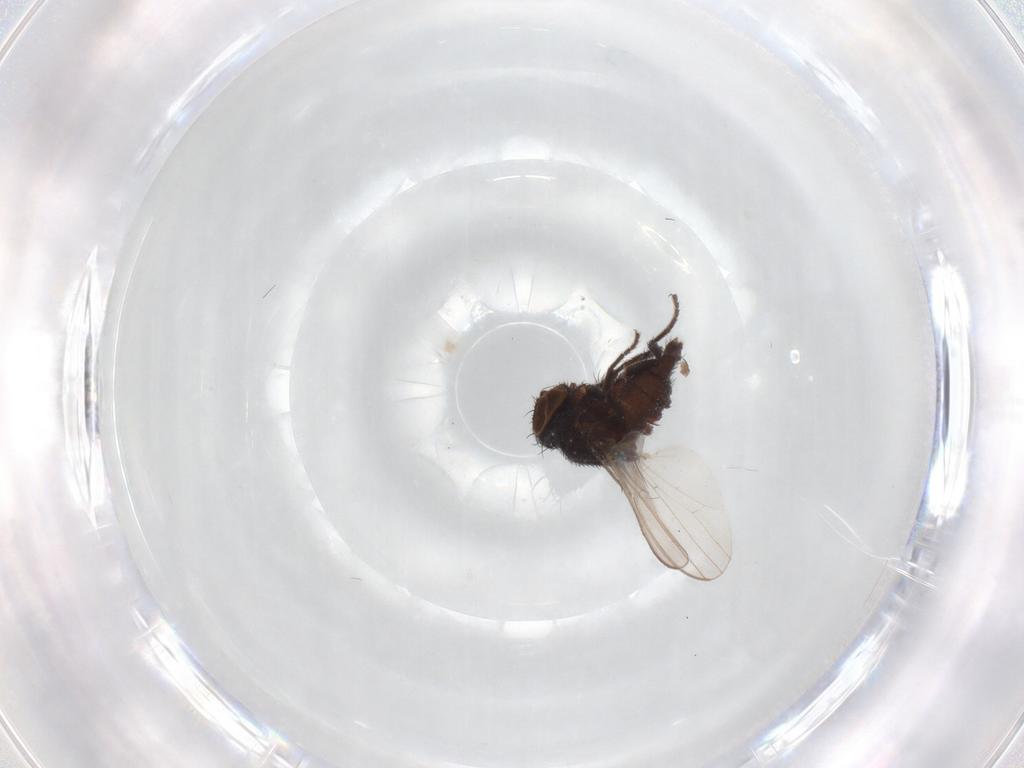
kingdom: Animalia
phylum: Arthropoda
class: Insecta
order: Diptera
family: Milichiidae
